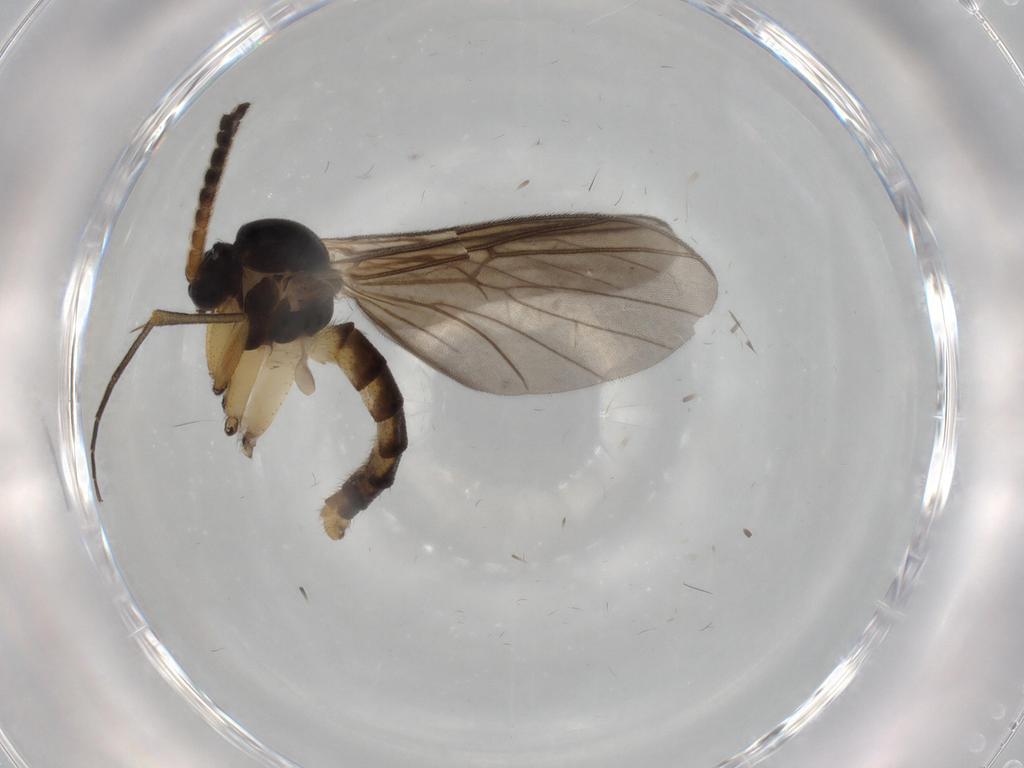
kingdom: Animalia
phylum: Arthropoda
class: Insecta
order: Diptera
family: Phoridae
